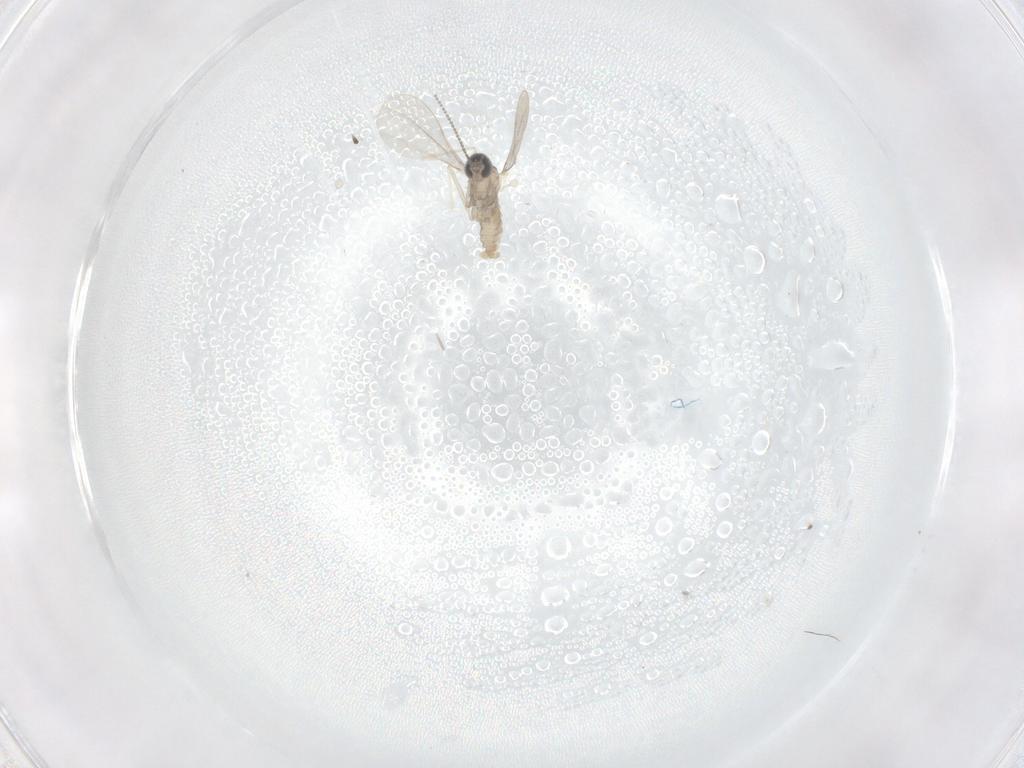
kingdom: Animalia
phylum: Arthropoda
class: Insecta
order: Diptera
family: Cecidomyiidae
